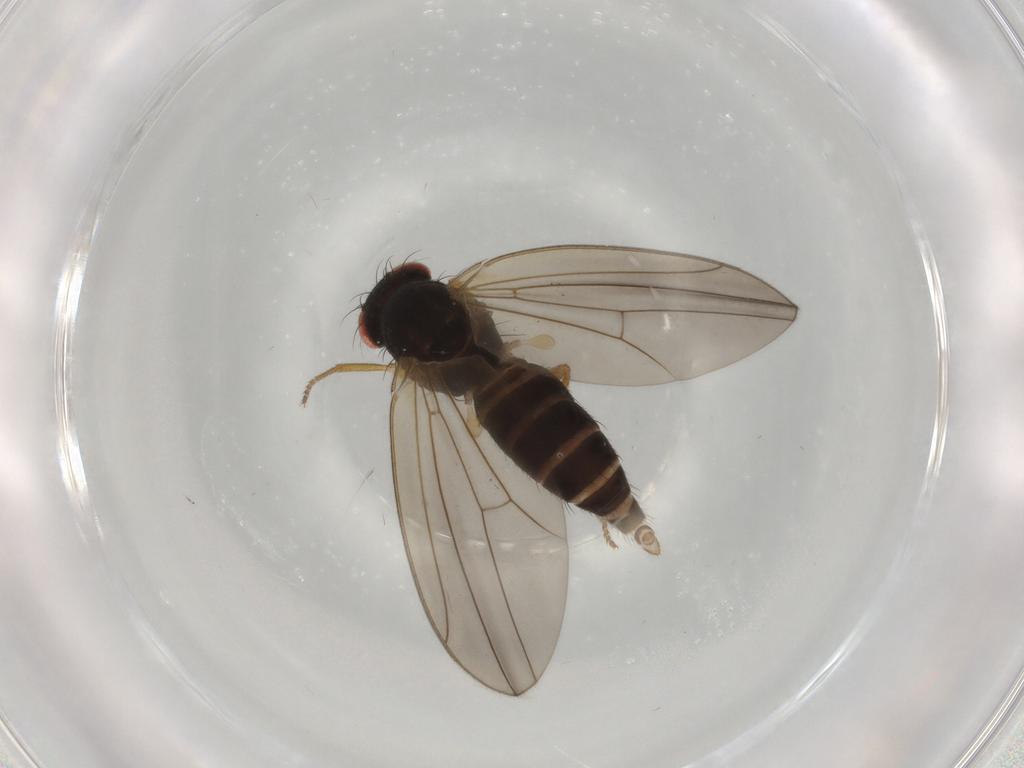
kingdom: Animalia
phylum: Arthropoda
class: Insecta
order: Diptera
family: Drosophilidae
